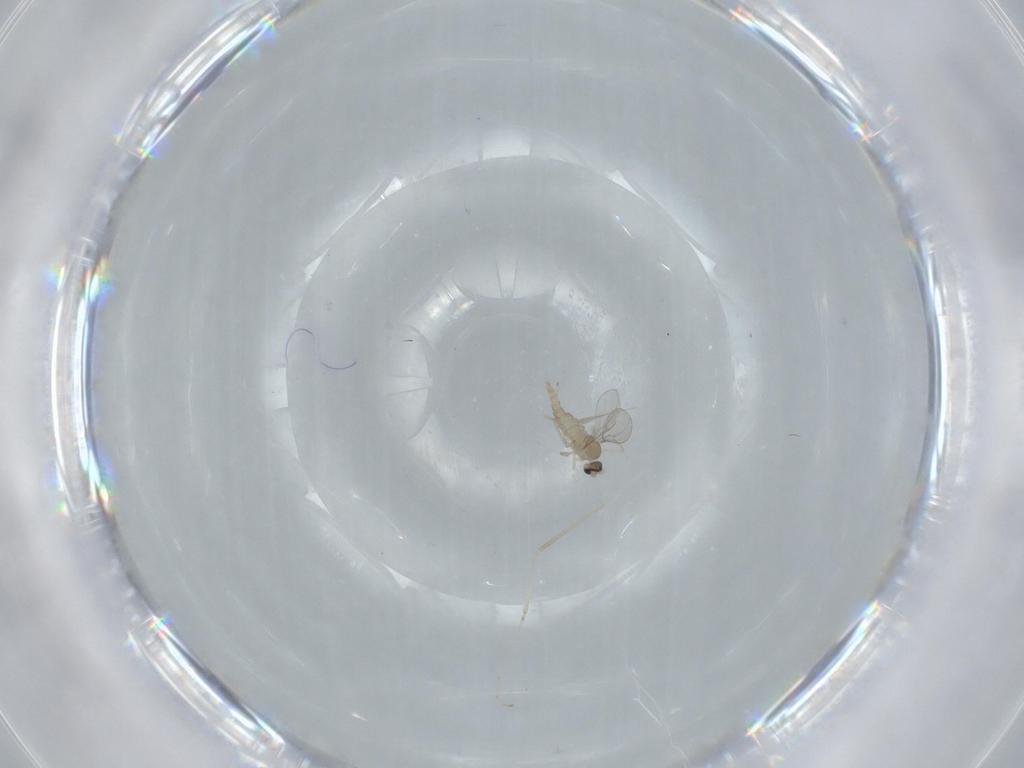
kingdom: Animalia
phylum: Arthropoda
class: Insecta
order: Diptera
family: Cecidomyiidae
